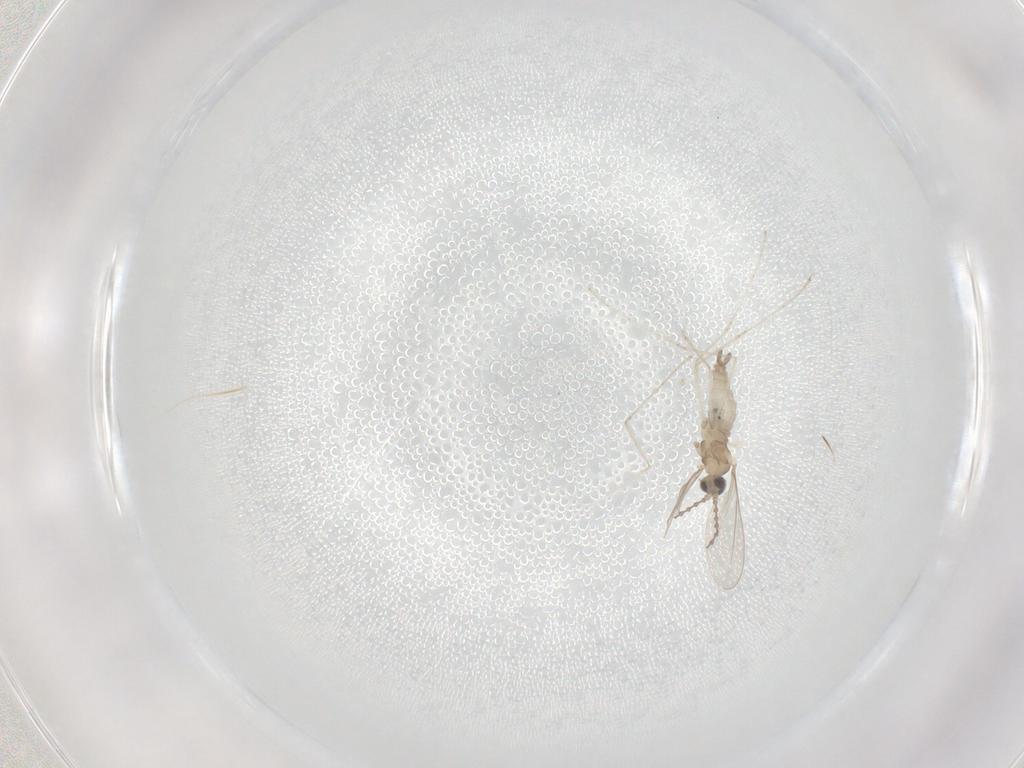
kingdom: Animalia
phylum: Arthropoda
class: Insecta
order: Diptera
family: Cecidomyiidae
